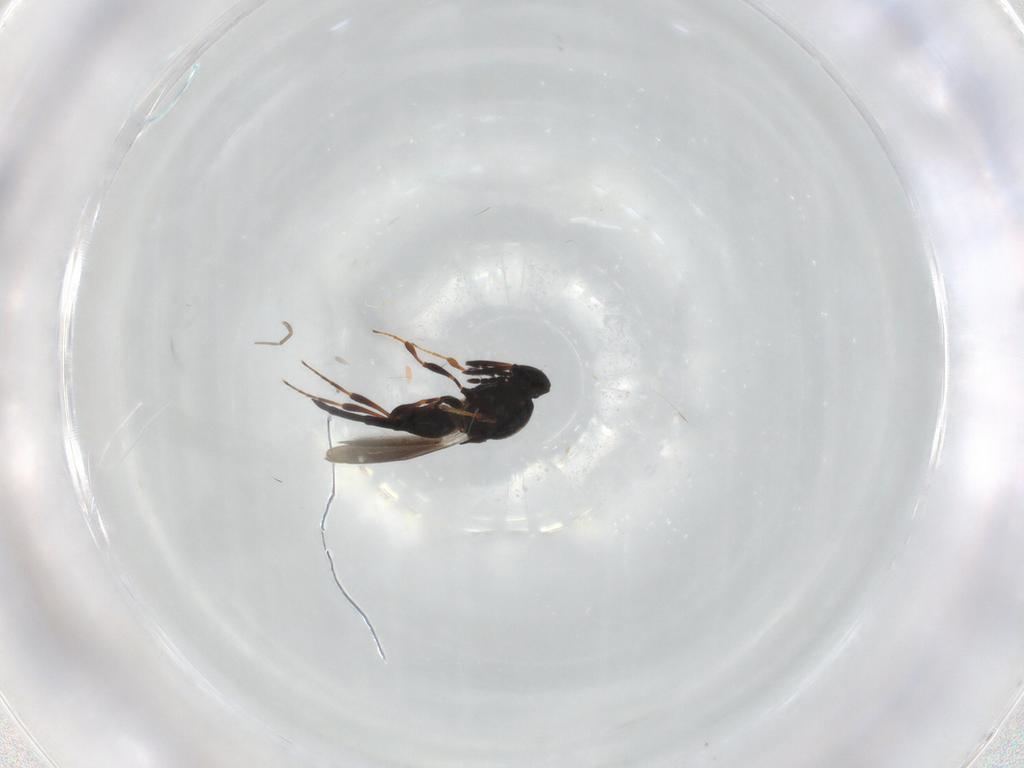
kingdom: Animalia
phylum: Arthropoda
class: Insecta
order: Hymenoptera
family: Platygastridae
